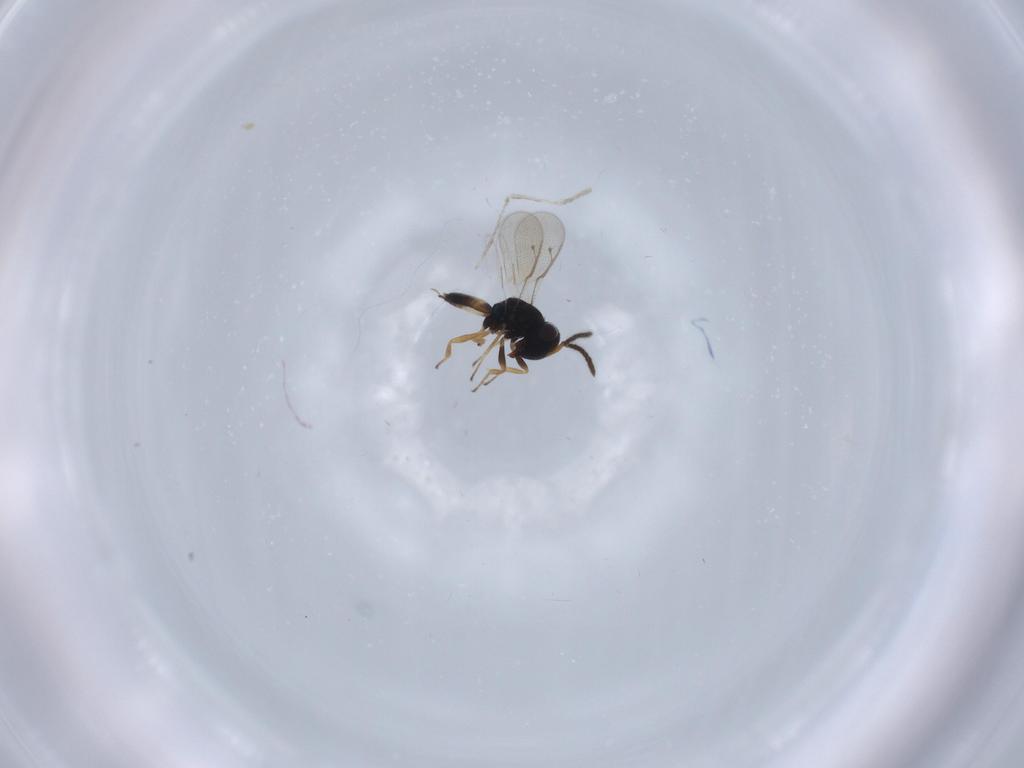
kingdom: Animalia
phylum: Arthropoda
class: Insecta
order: Hymenoptera
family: Pteromalidae
